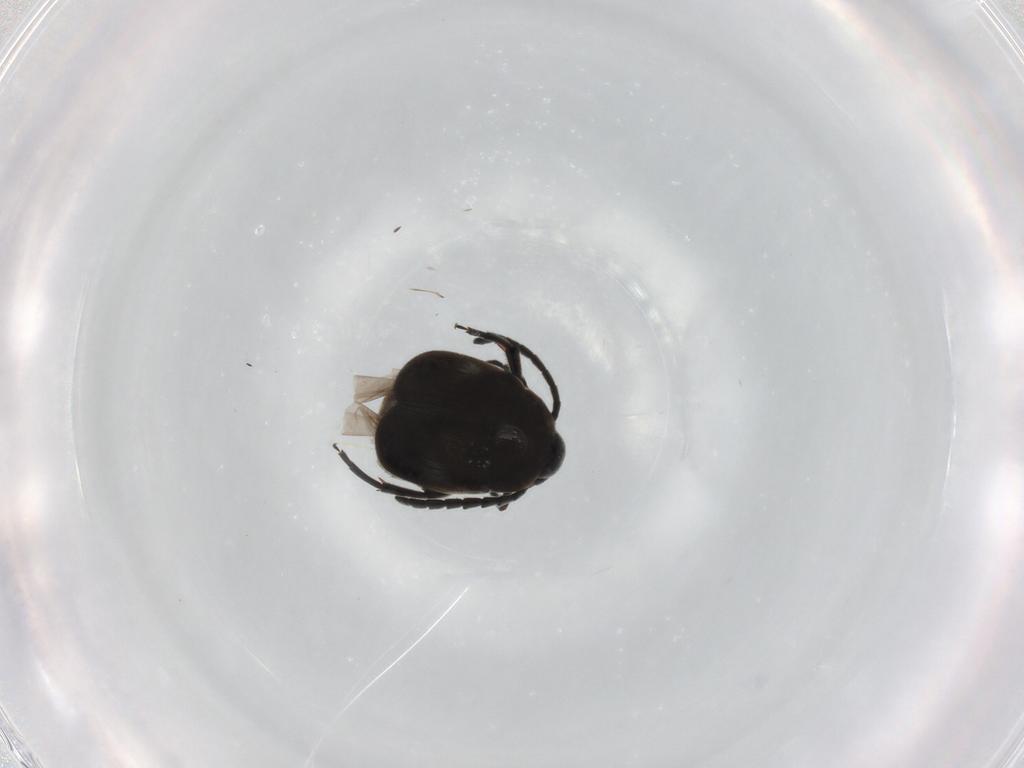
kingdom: Animalia
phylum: Arthropoda
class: Insecta
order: Coleoptera
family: Chrysomelidae
